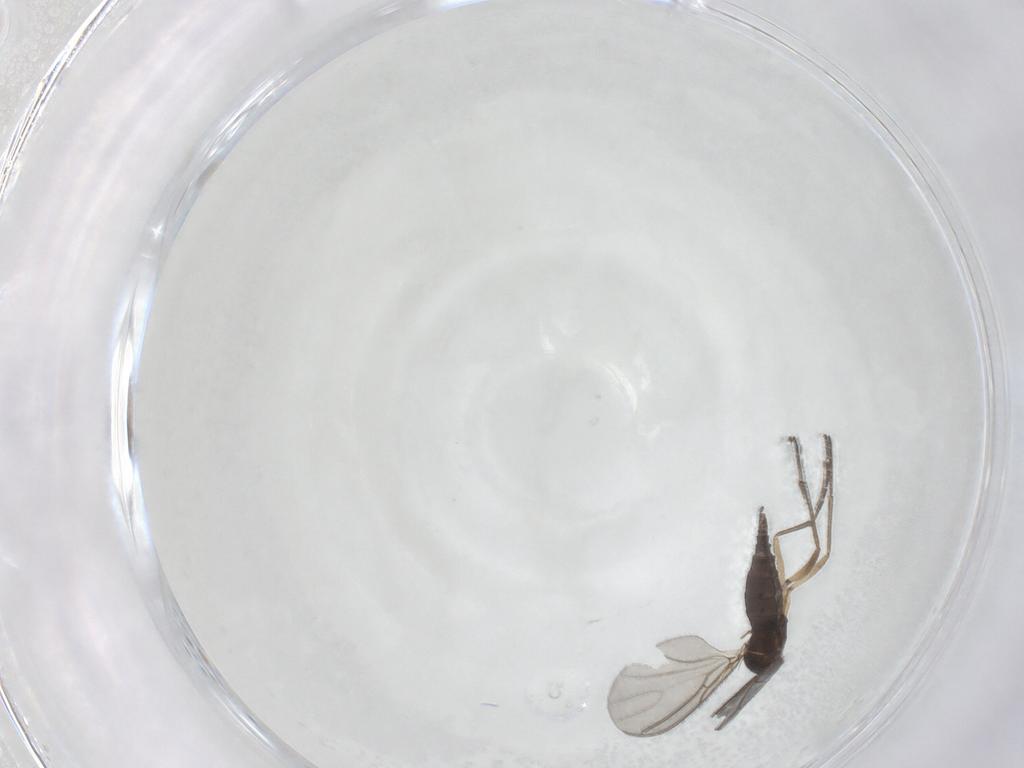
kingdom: Animalia
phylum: Arthropoda
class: Insecta
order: Diptera
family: Sciaridae
